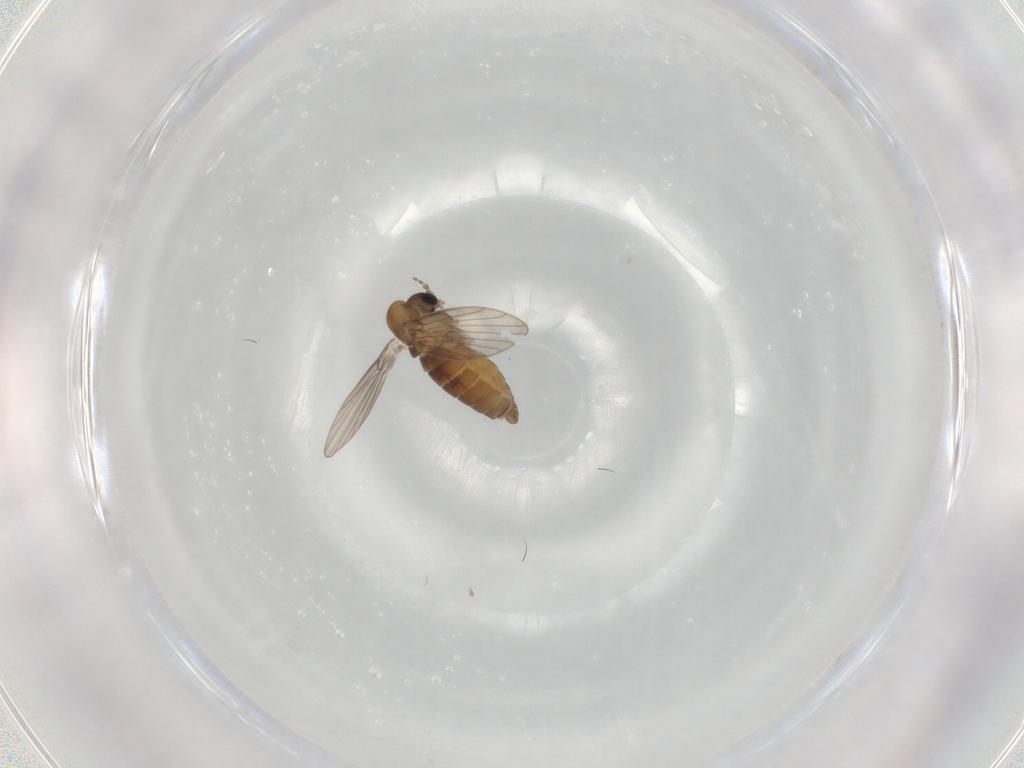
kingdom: Animalia
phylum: Arthropoda
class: Insecta
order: Diptera
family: Psychodidae
